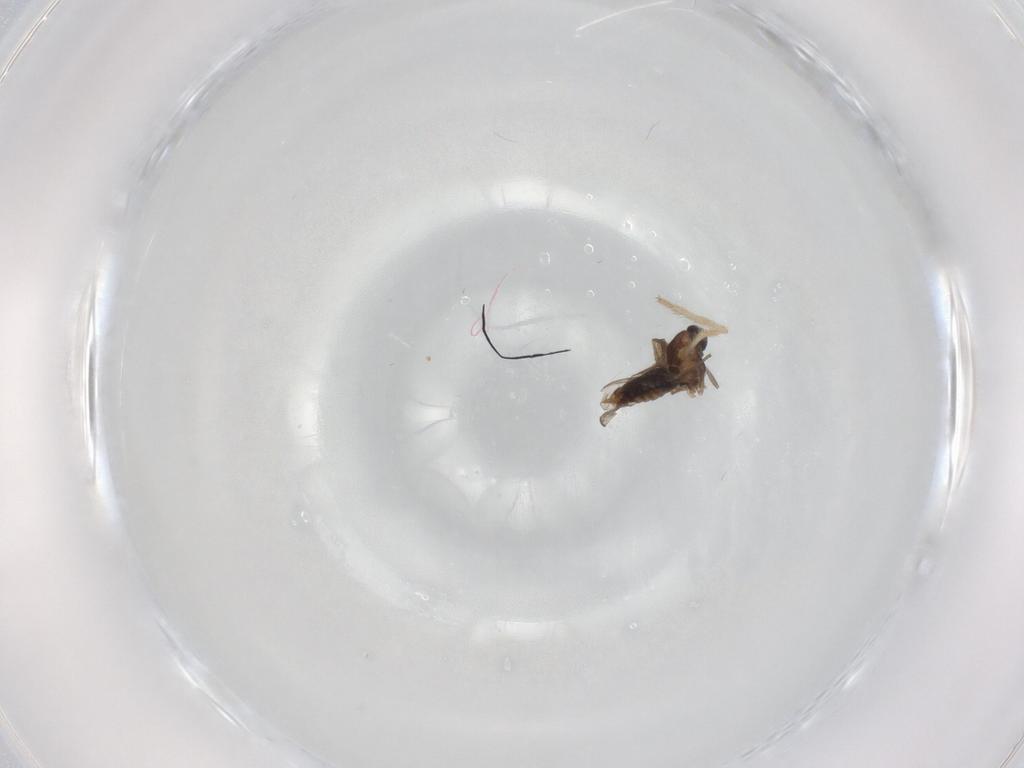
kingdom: Animalia
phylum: Arthropoda
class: Insecta
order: Diptera
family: Chironomidae
